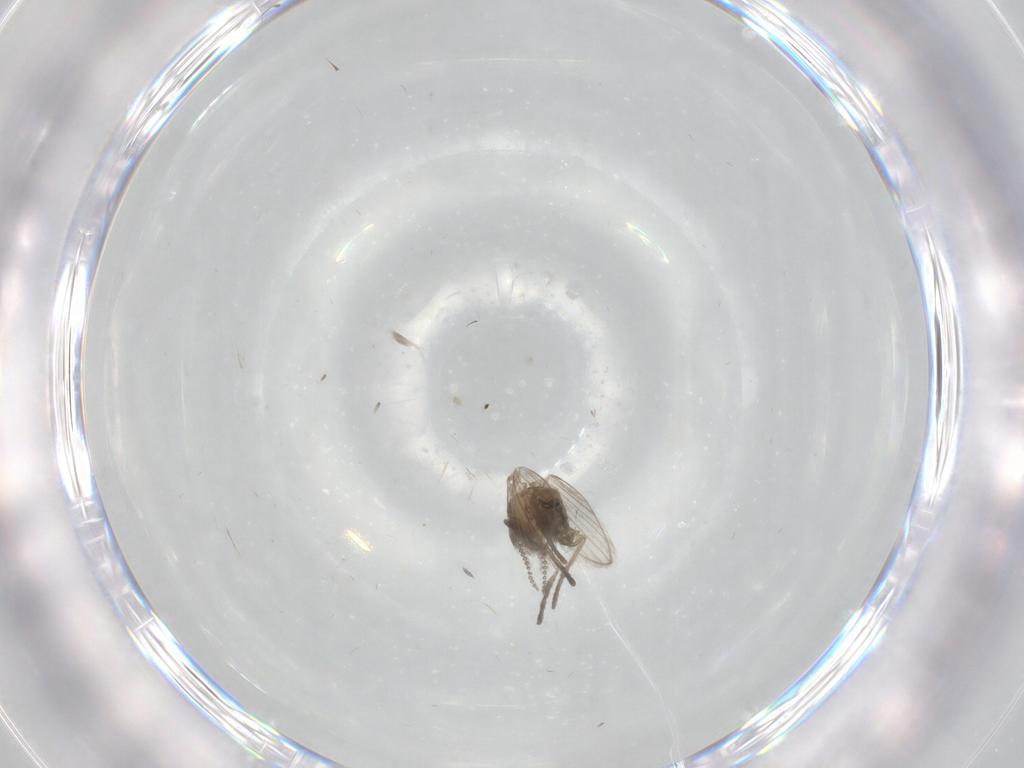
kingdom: Animalia
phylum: Arthropoda
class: Insecta
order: Diptera
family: Psychodidae
